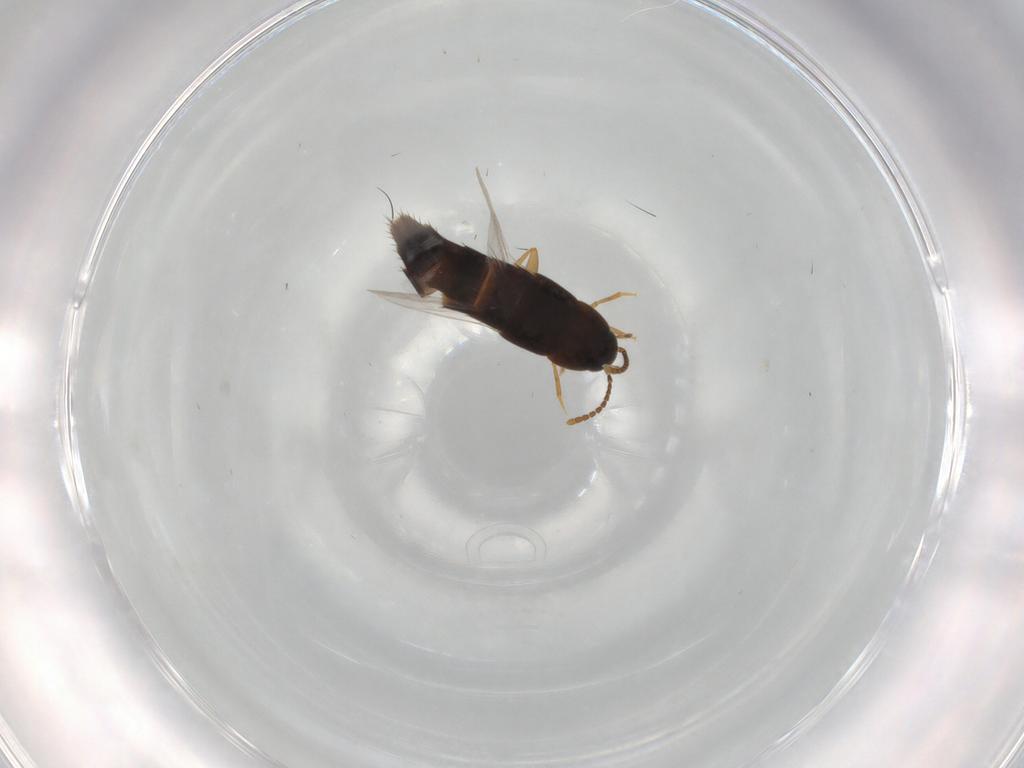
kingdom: Animalia
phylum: Arthropoda
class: Insecta
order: Coleoptera
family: Staphylinidae
